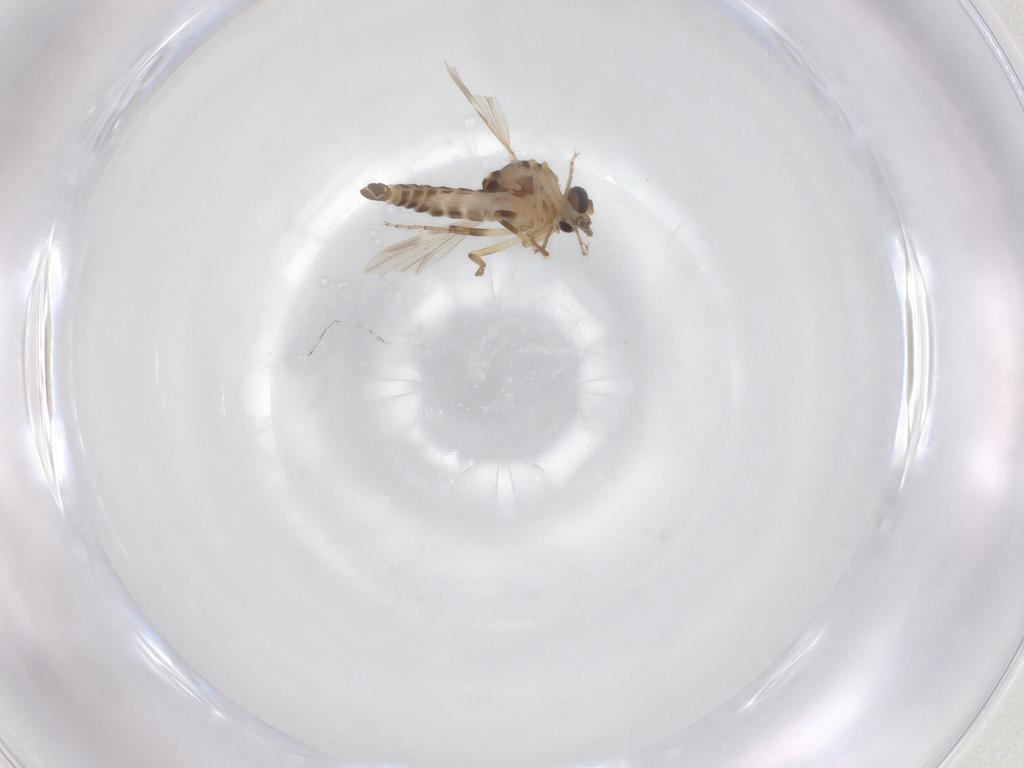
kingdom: Animalia
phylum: Arthropoda
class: Insecta
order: Diptera
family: Ceratopogonidae
